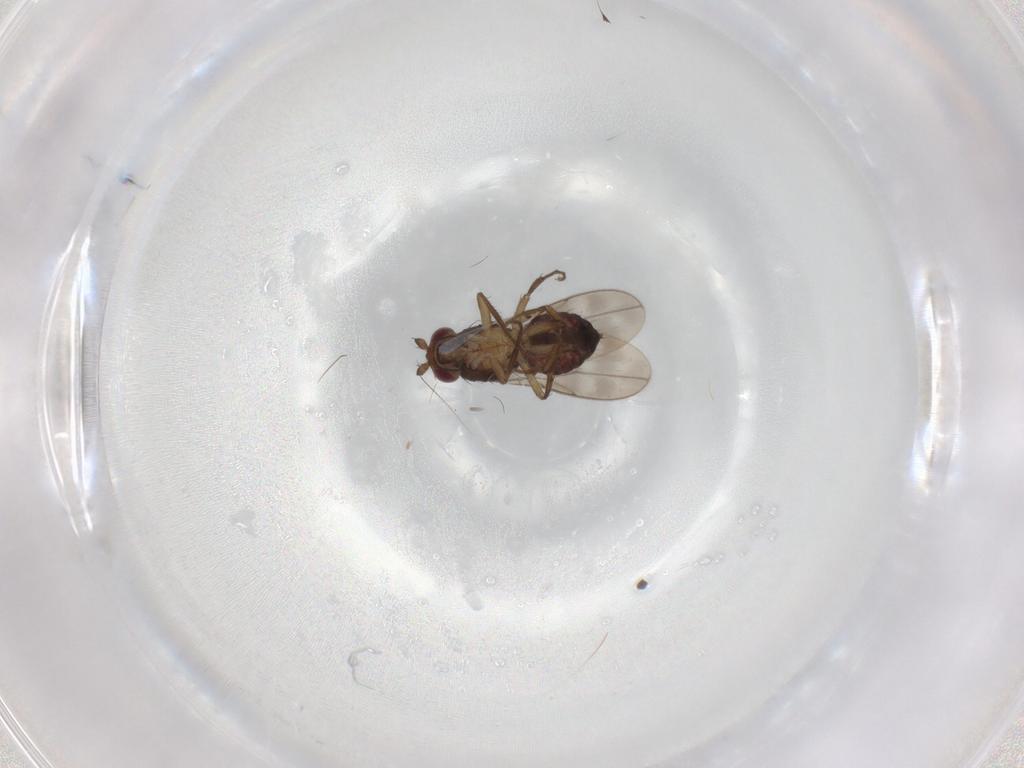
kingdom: Animalia
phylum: Arthropoda
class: Insecta
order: Diptera
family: Sphaeroceridae
